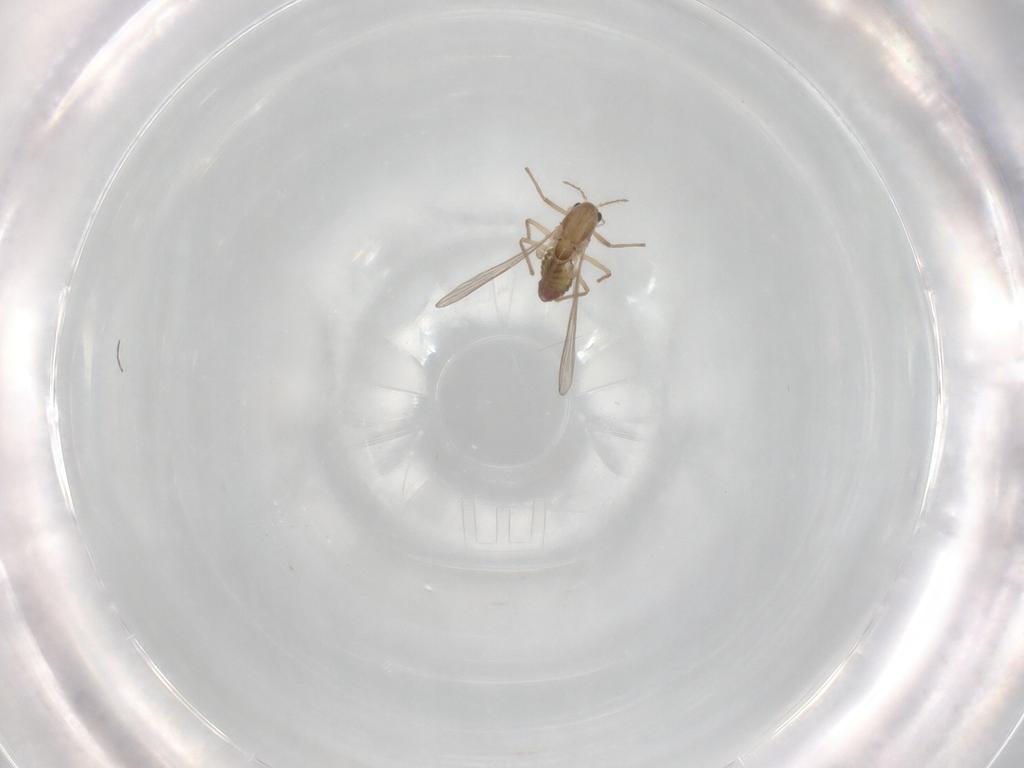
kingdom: Animalia
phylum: Arthropoda
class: Insecta
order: Diptera
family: Chironomidae
